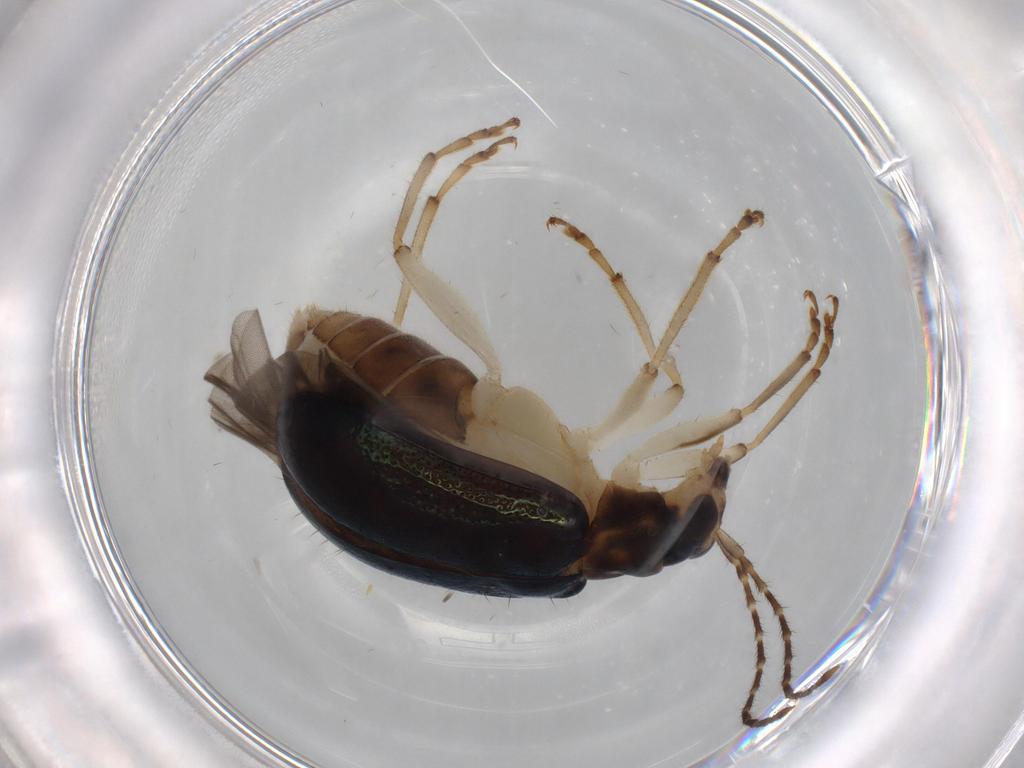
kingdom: Animalia
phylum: Arthropoda
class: Insecta
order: Coleoptera
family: Chrysomelidae
